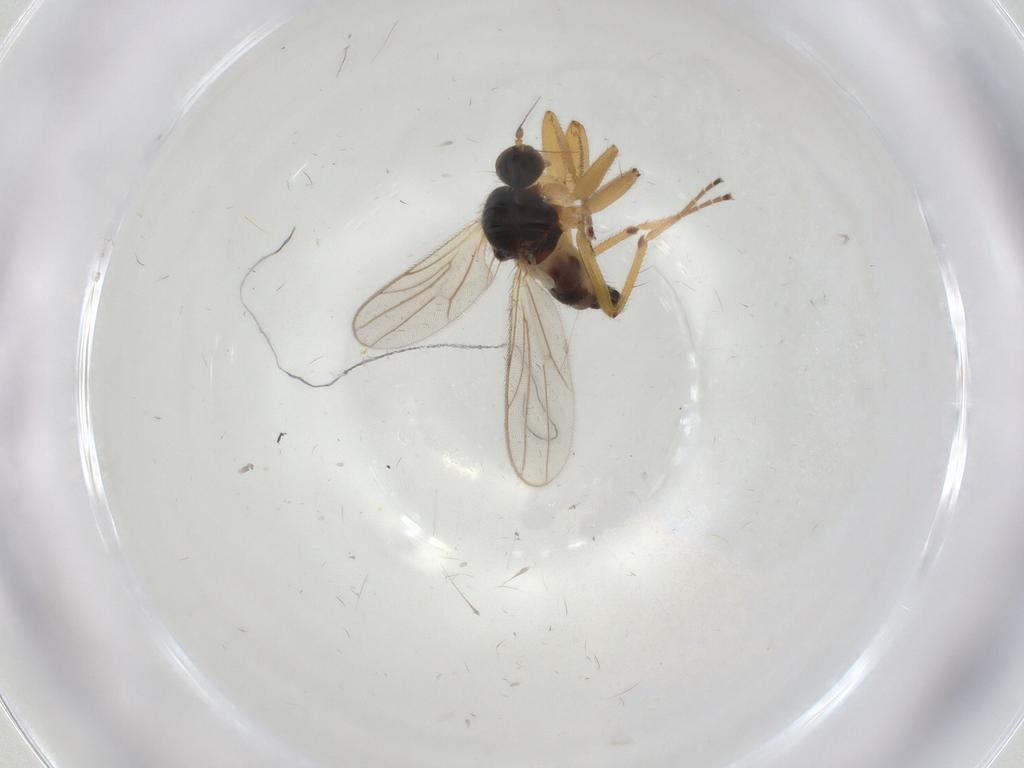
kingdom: Animalia
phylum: Arthropoda
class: Insecta
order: Diptera
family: Hybotidae
